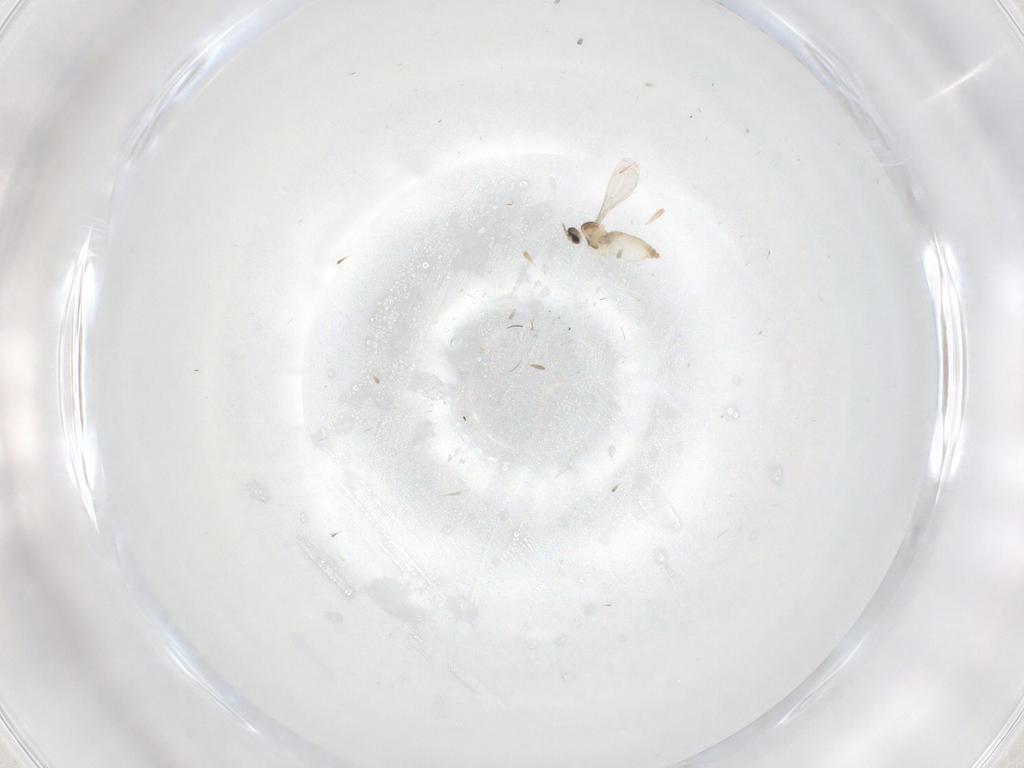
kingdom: Animalia
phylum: Arthropoda
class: Insecta
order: Diptera
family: Dolichopodidae
